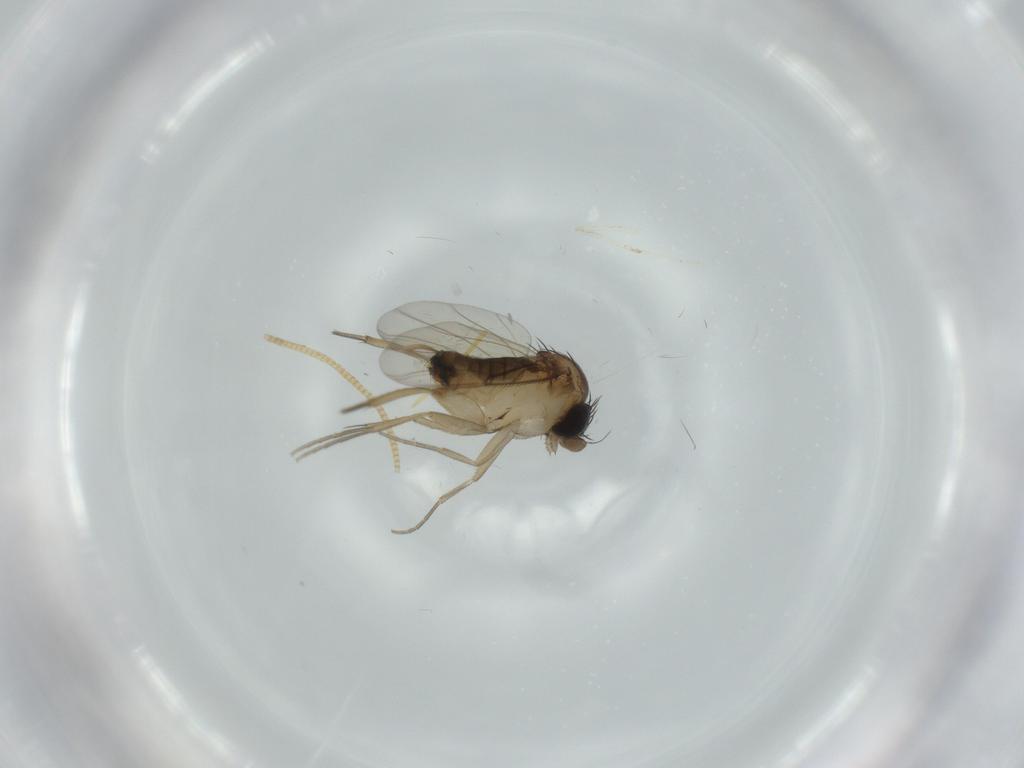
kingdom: Animalia
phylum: Arthropoda
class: Insecta
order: Diptera
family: Phoridae
